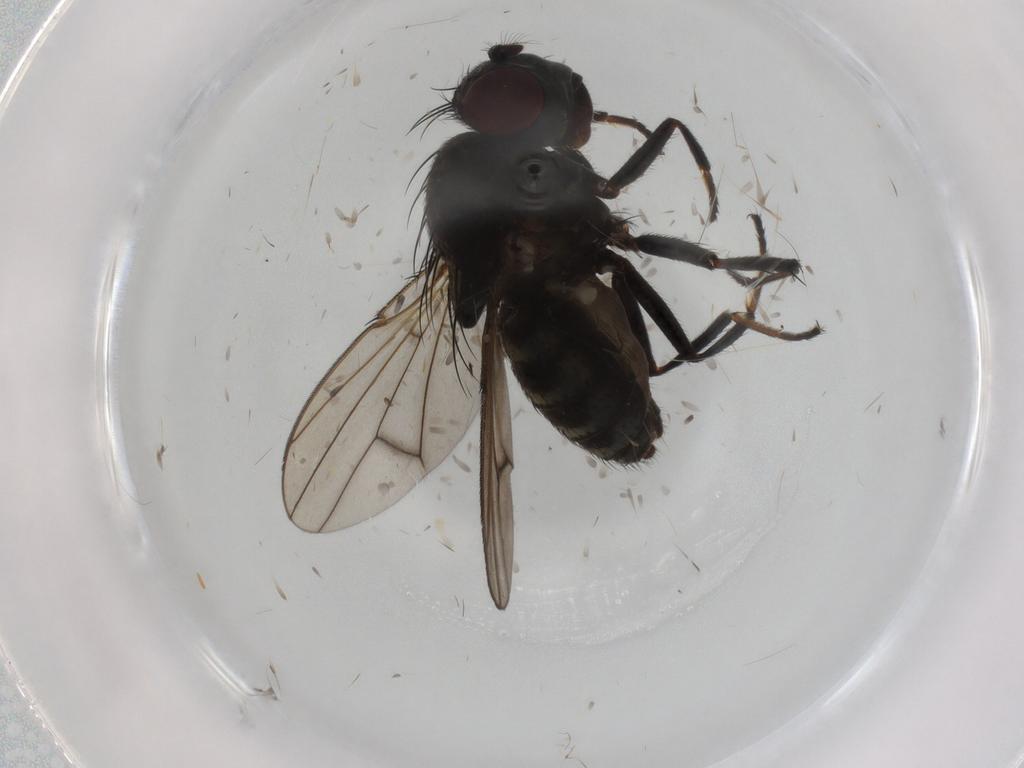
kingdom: Animalia
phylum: Arthropoda
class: Insecta
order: Diptera
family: Ephydridae
